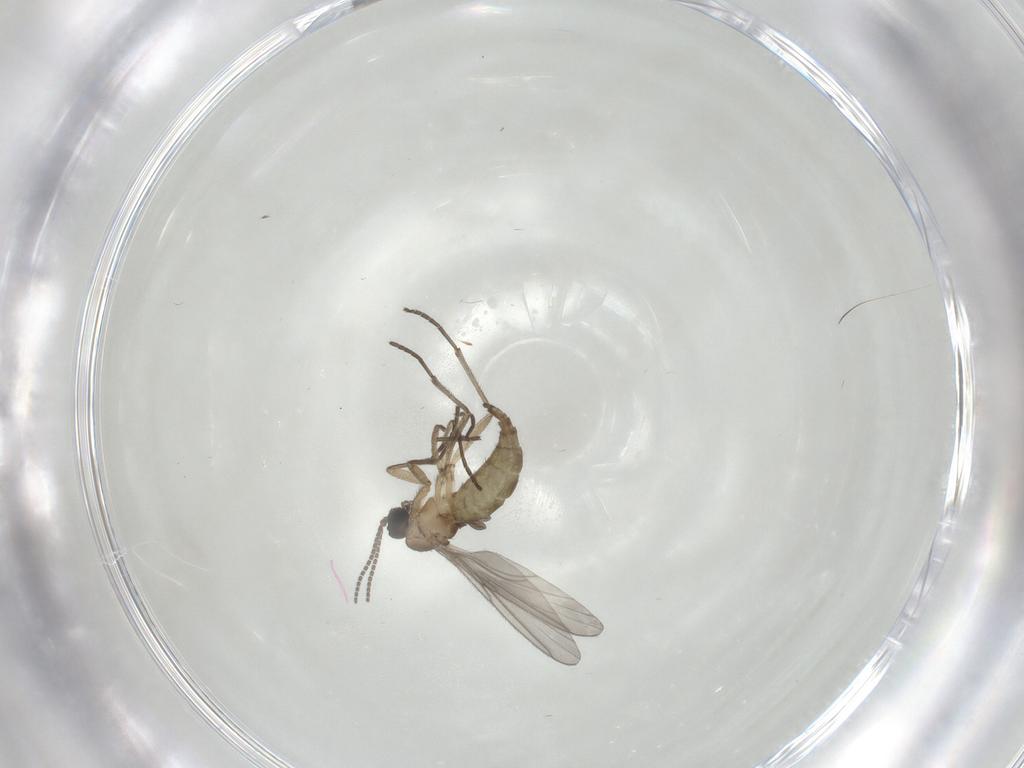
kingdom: Animalia
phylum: Arthropoda
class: Insecta
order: Diptera
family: Sciaridae
